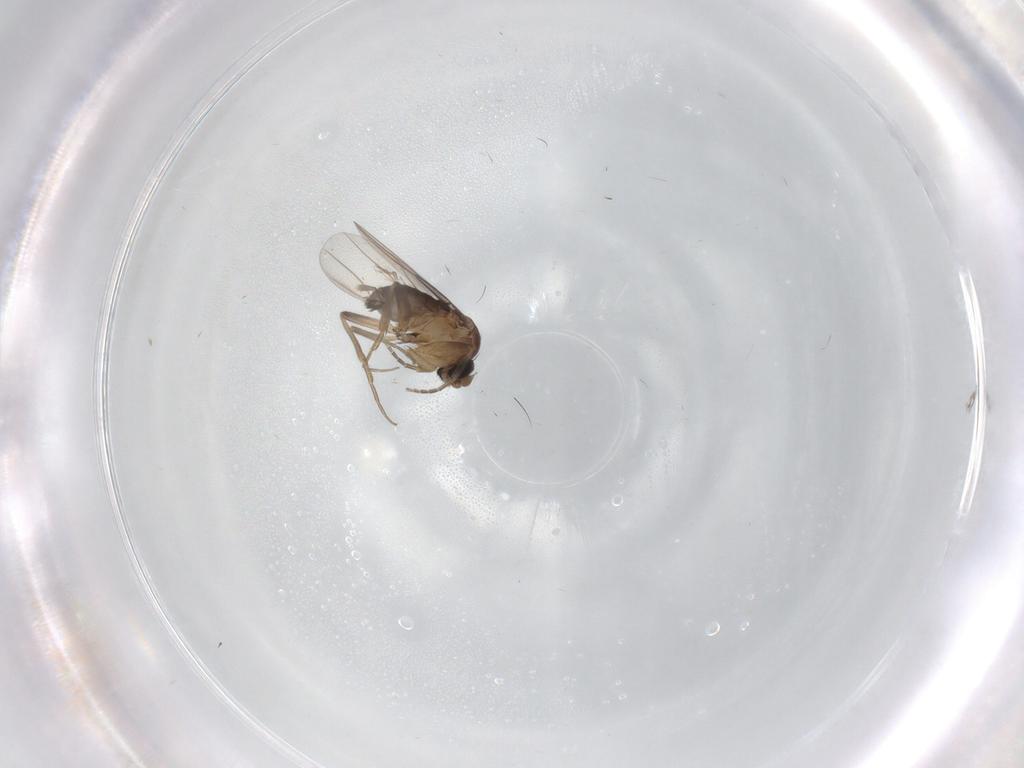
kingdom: Animalia
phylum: Arthropoda
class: Insecta
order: Diptera
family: Phoridae
